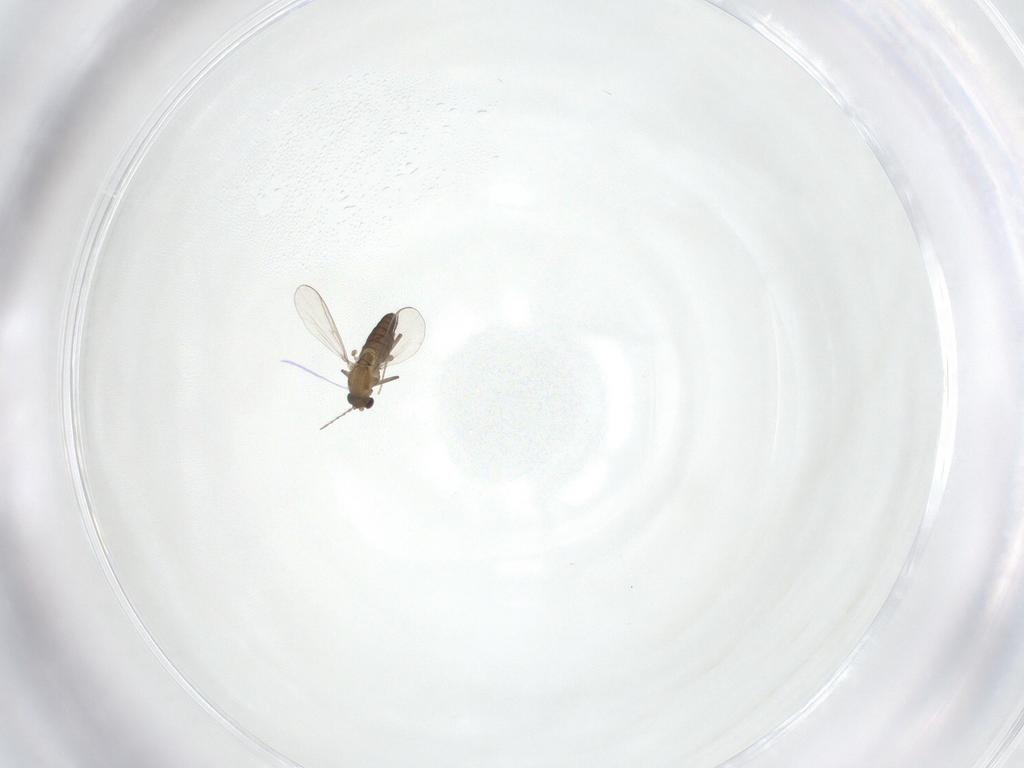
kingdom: Animalia
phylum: Arthropoda
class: Insecta
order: Diptera
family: Chironomidae
